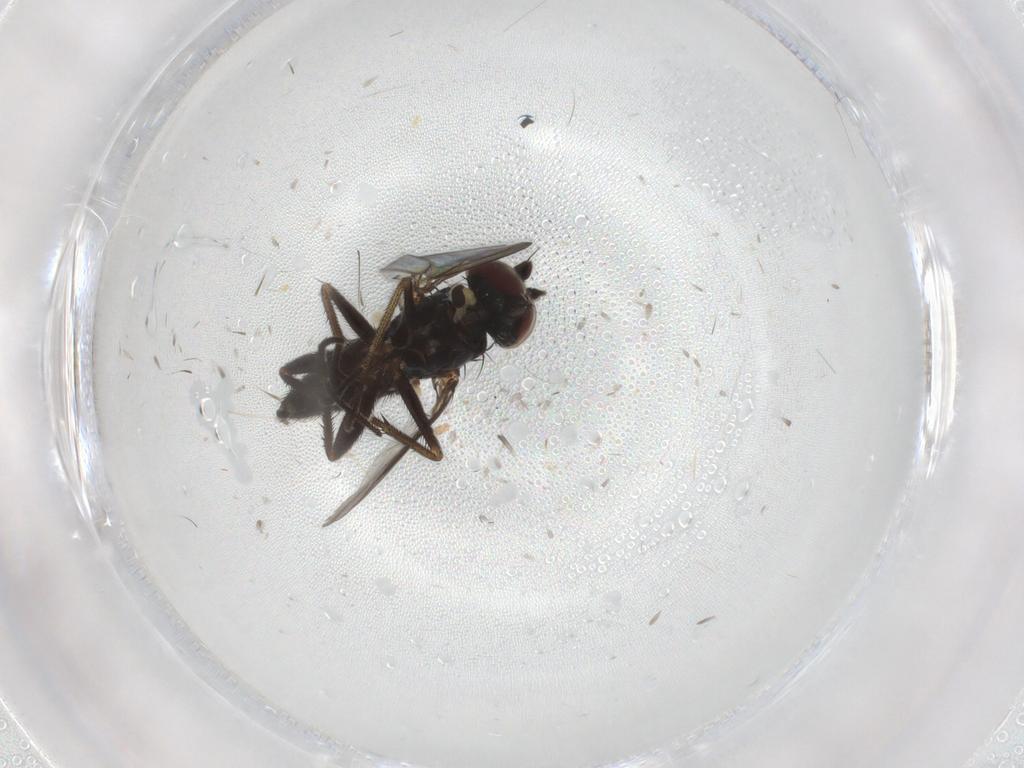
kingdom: Animalia
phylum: Arthropoda
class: Insecta
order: Diptera
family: Dolichopodidae
